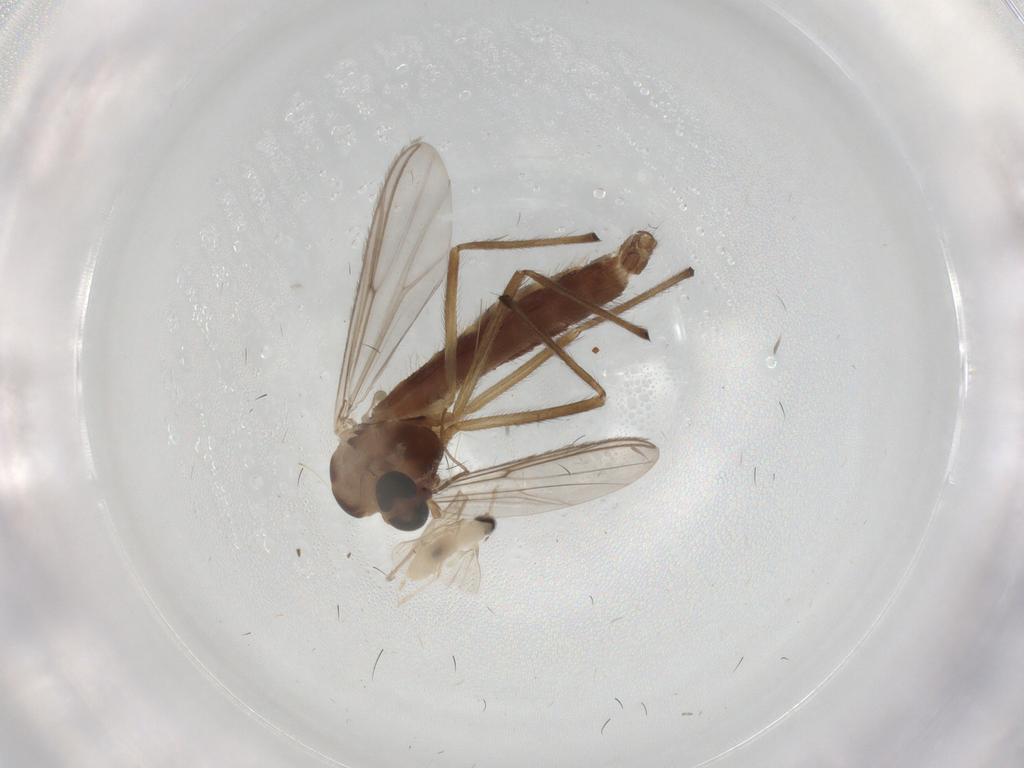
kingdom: Animalia
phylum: Arthropoda
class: Insecta
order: Diptera
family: Chironomidae
